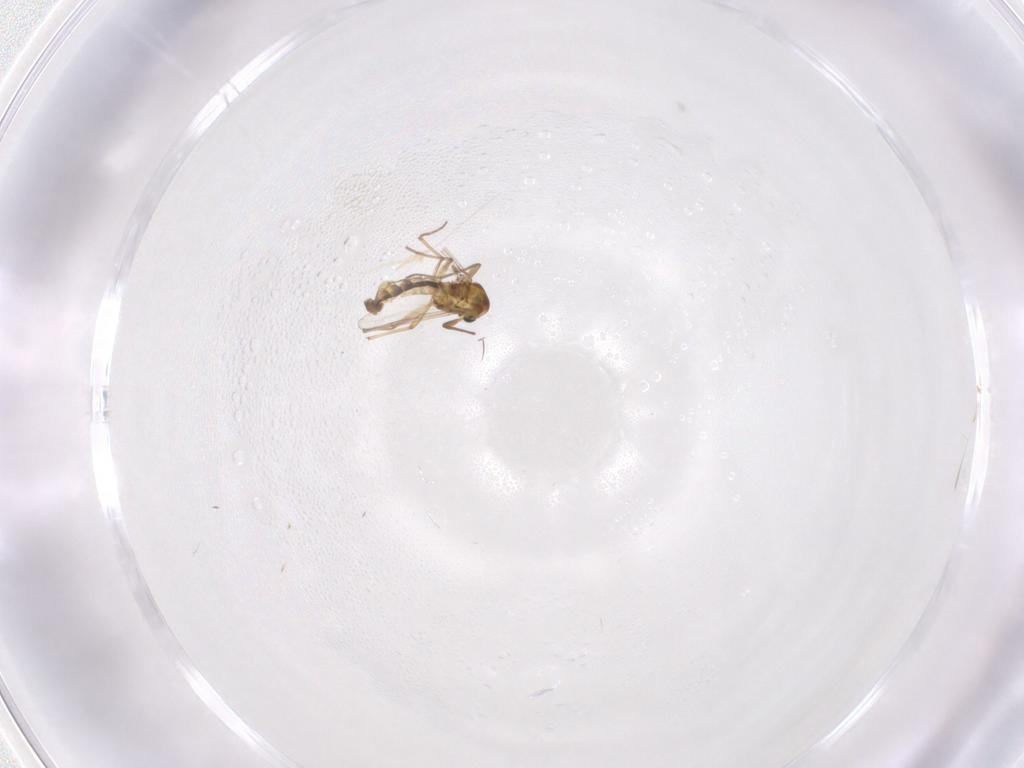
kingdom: Animalia
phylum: Arthropoda
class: Insecta
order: Diptera
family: Chironomidae
